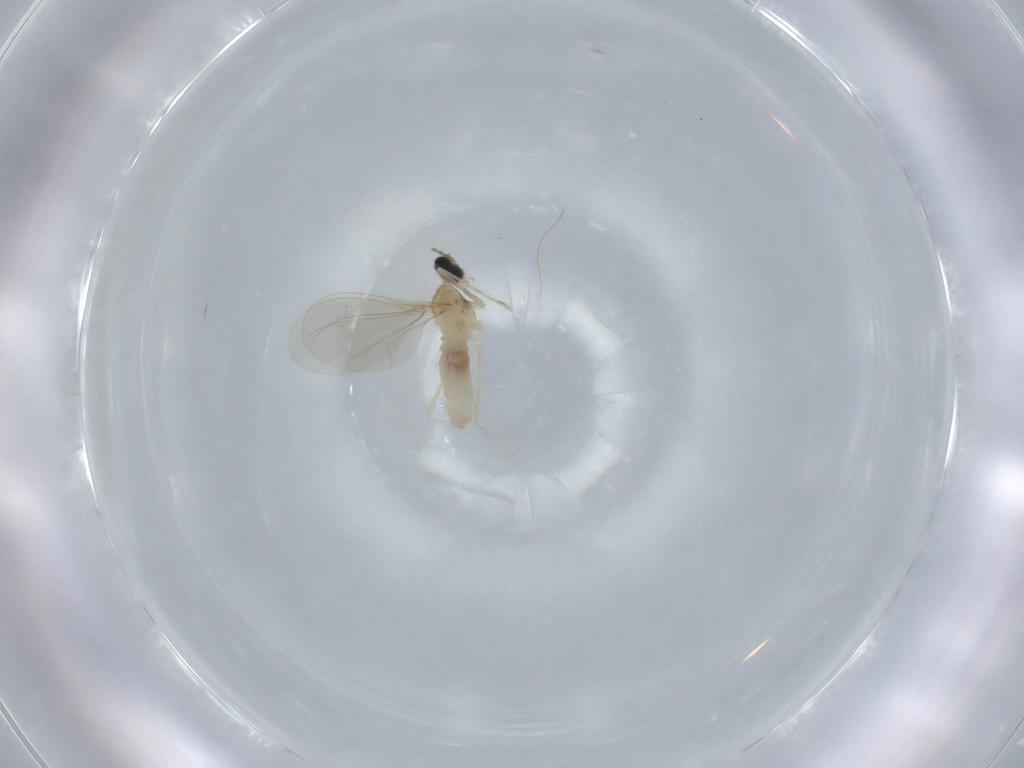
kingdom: Animalia
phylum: Arthropoda
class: Insecta
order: Diptera
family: Cecidomyiidae
